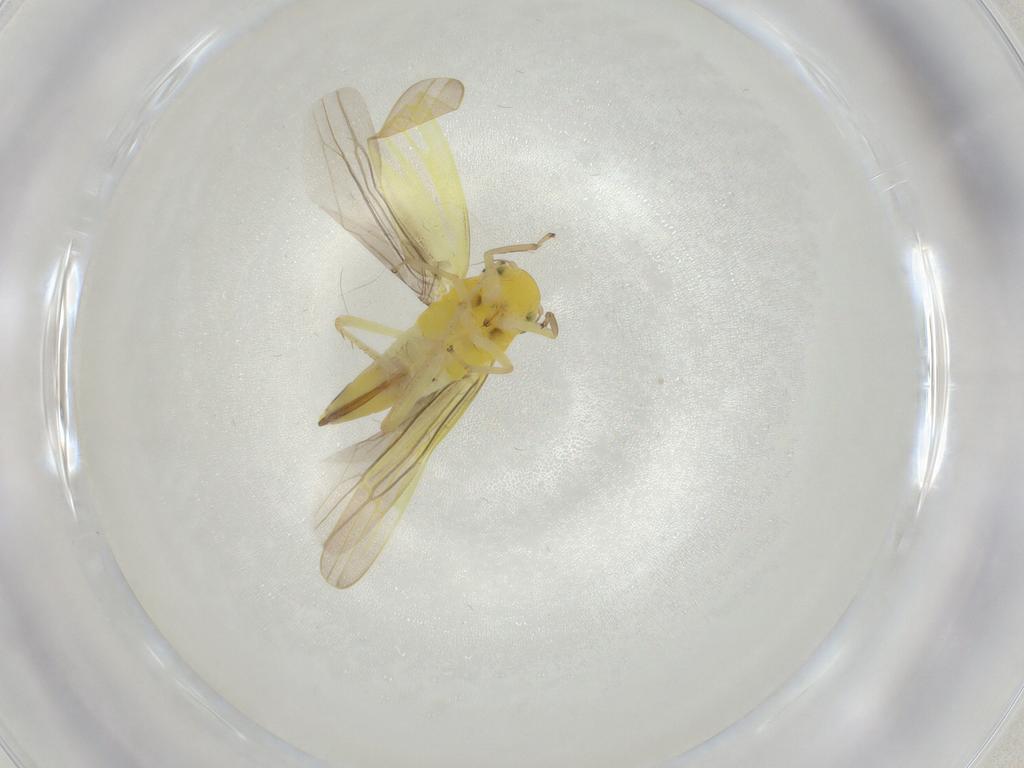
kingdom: Animalia
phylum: Arthropoda
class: Insecta
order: Hemiptera
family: Cicadellidae
